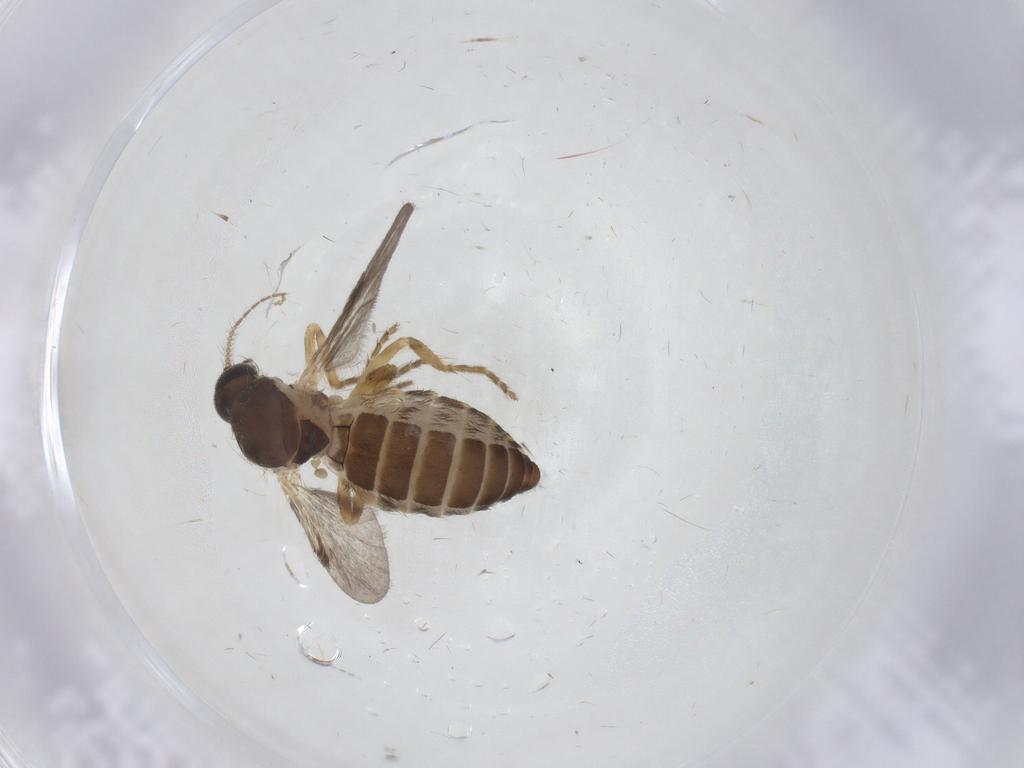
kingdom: Animalia
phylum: Arthropoda
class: Insecta
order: Diptera
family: Ceratopogonidae
